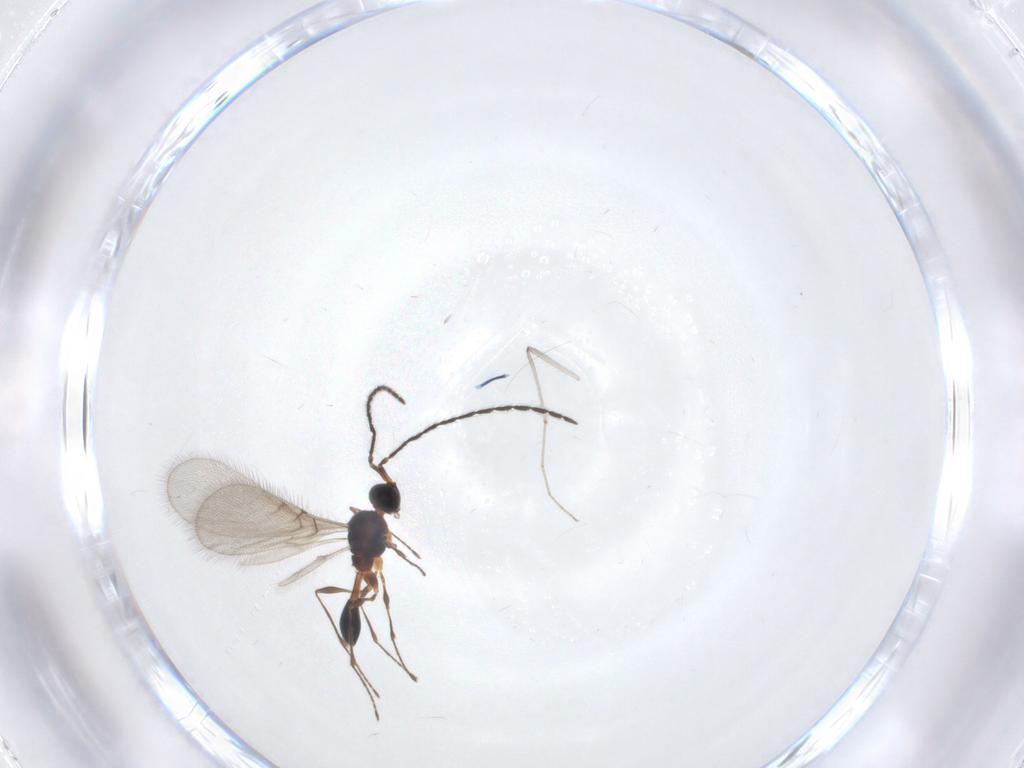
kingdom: Animalia
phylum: Arthropoda
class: Insecta
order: Hymenoptera
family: Diapriidae
